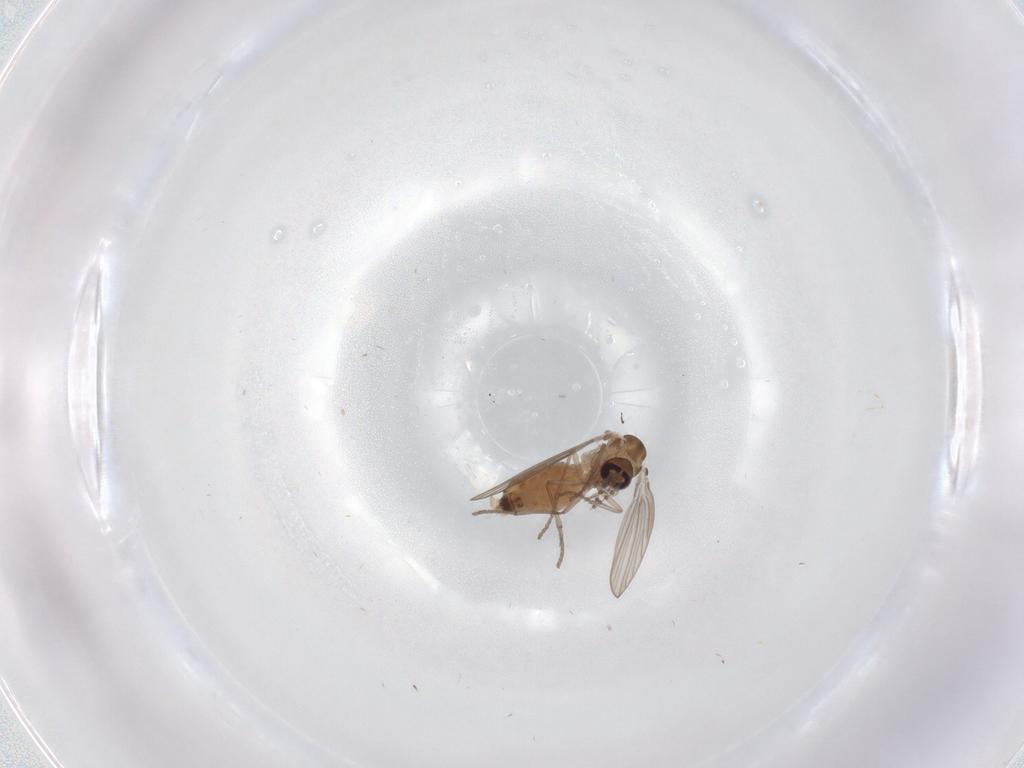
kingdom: Animalia
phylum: Arthropoda
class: Insecta
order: Diptera
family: Psychodidae
